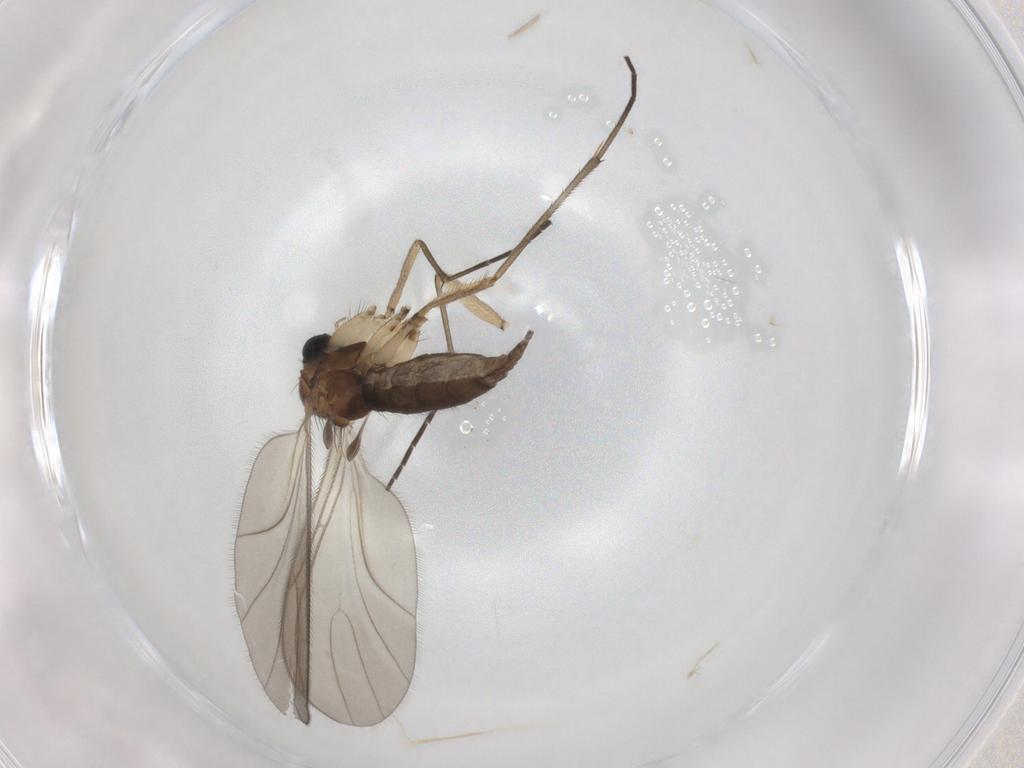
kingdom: Animalia
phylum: Arthropoda
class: Insecta
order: Diptera
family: Sciaridae
